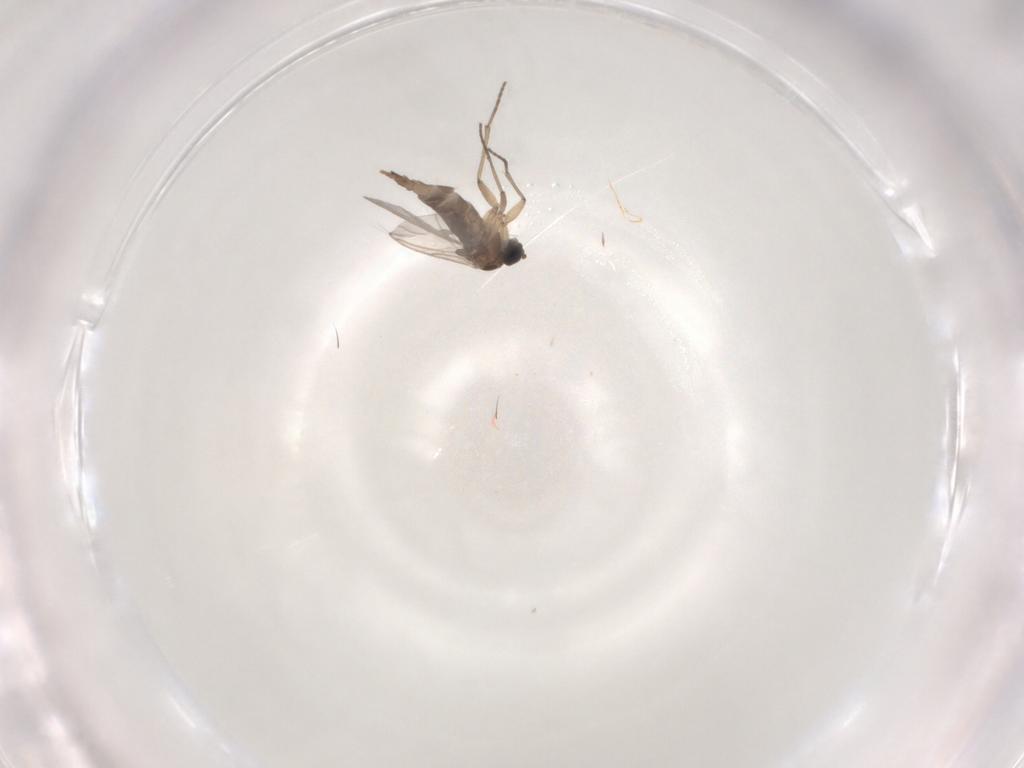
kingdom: Animalia
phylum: Arthropoda
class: Insecta
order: Diptera
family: Sciaridae
